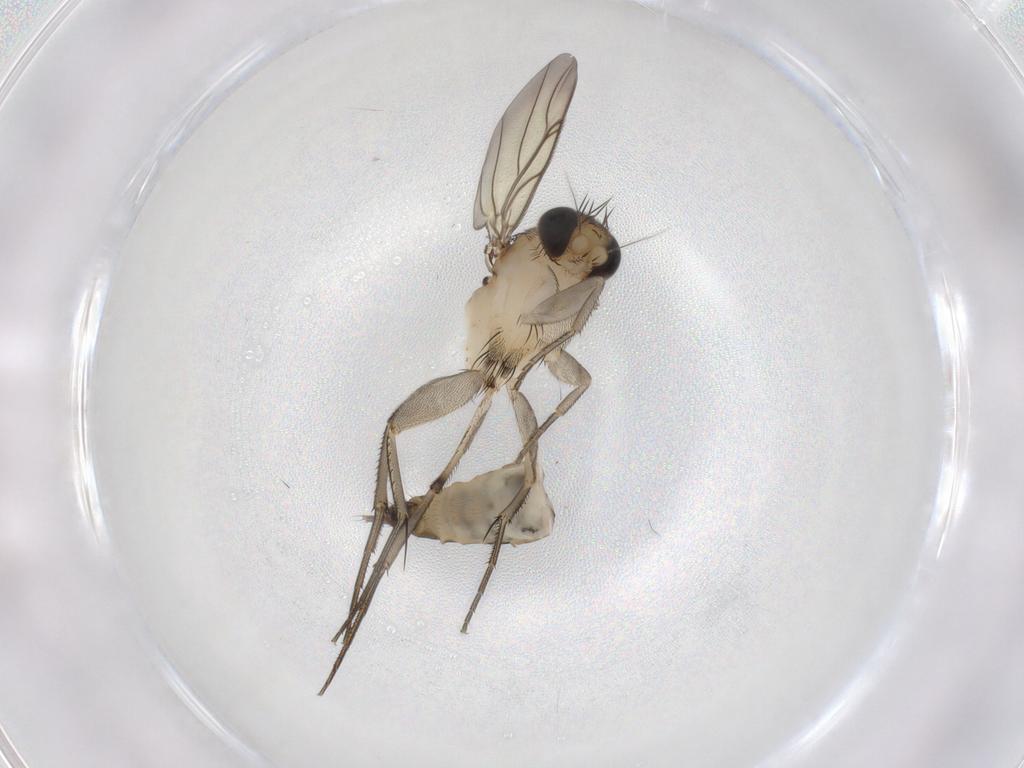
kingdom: Animalia
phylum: Arthropoda
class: Insecta
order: Diptera
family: Phoridae
